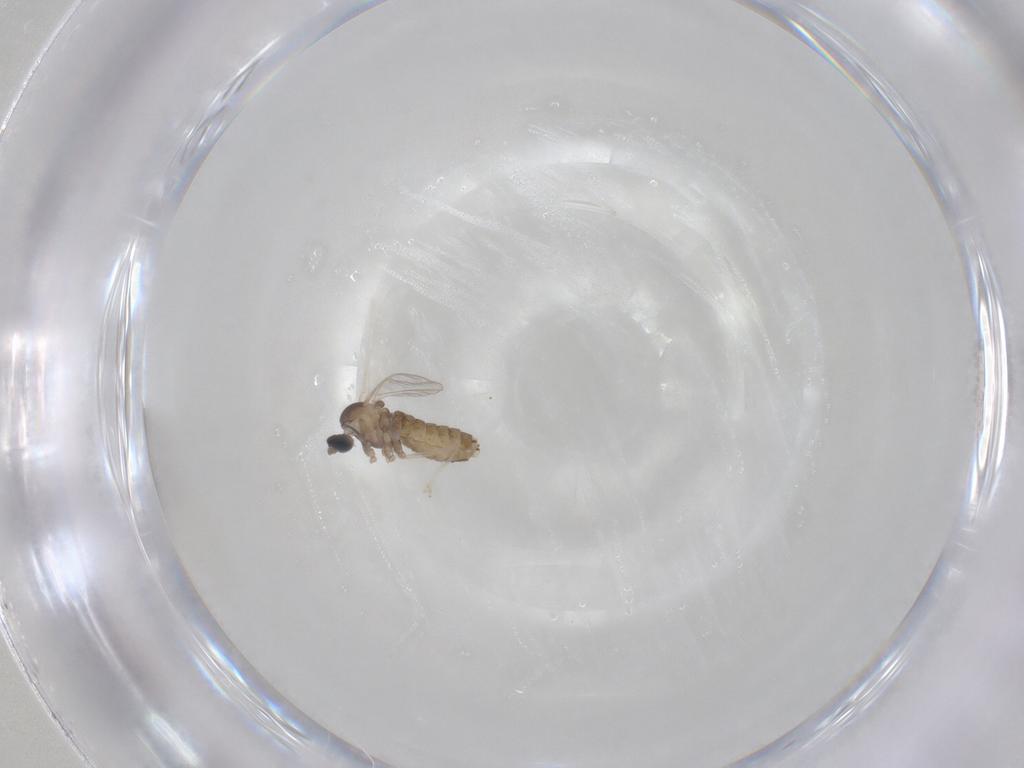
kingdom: Animalia
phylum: Arthropoda
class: Insecta
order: Diptera
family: Cecidomyiidae
